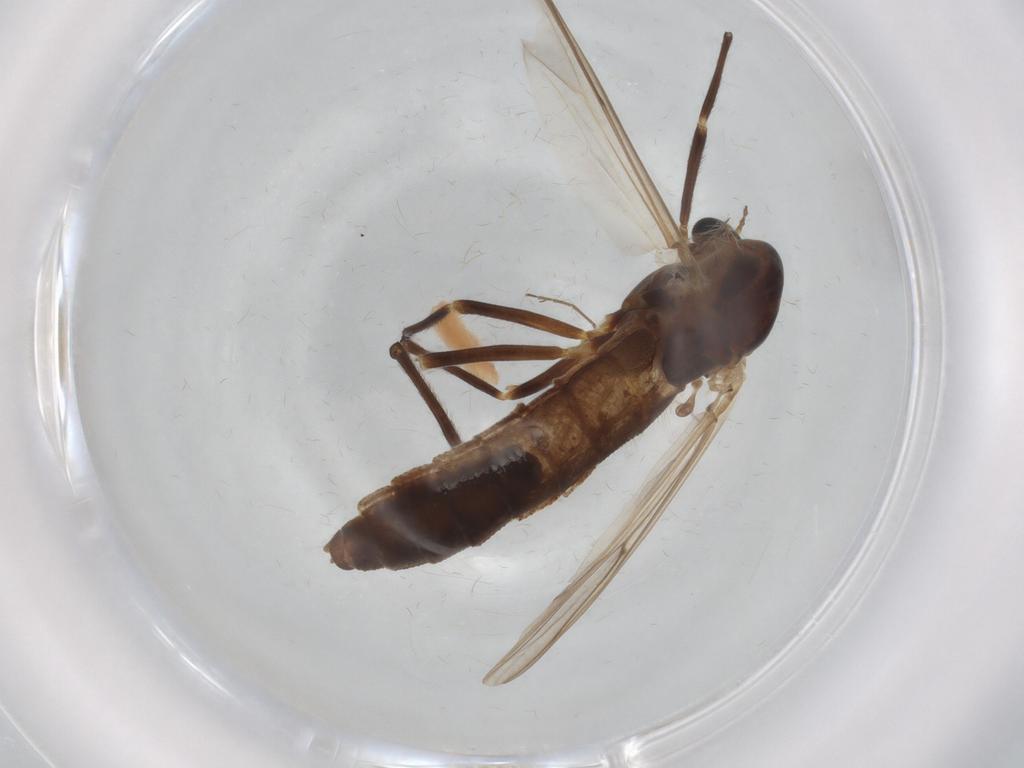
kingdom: Animalia
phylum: Arthropoda
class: Insecta
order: Diptera
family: Chironomidae
